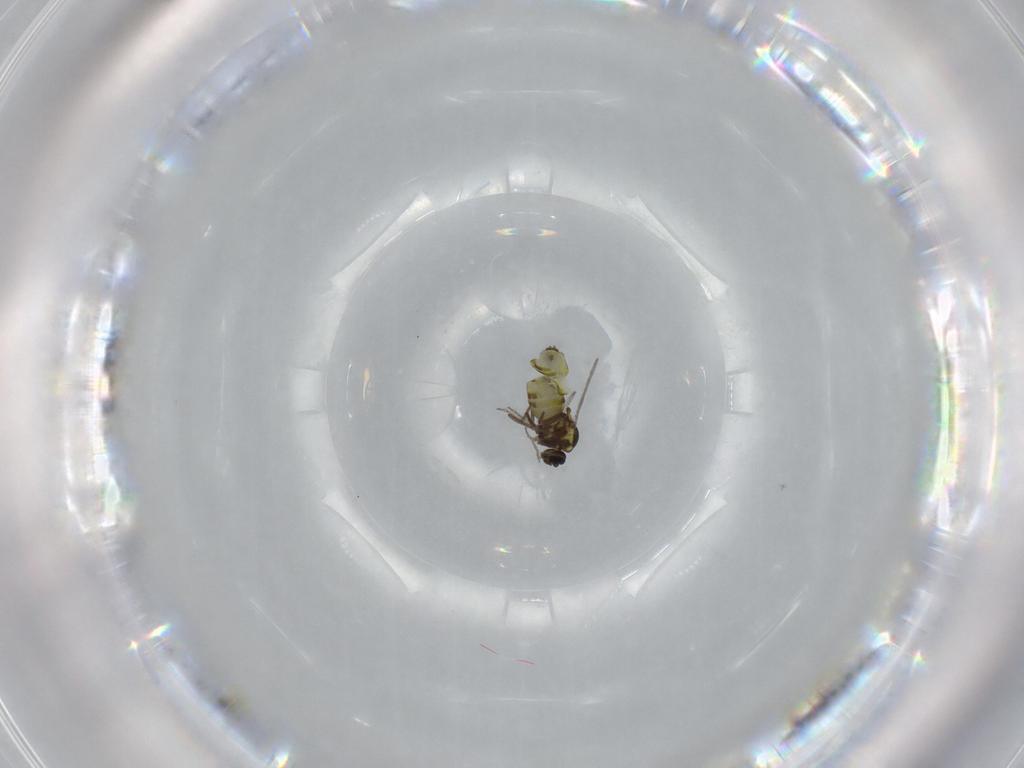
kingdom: Animalia
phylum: Arthropoda
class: Insecta
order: Diptera
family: Ceratopogonidae
